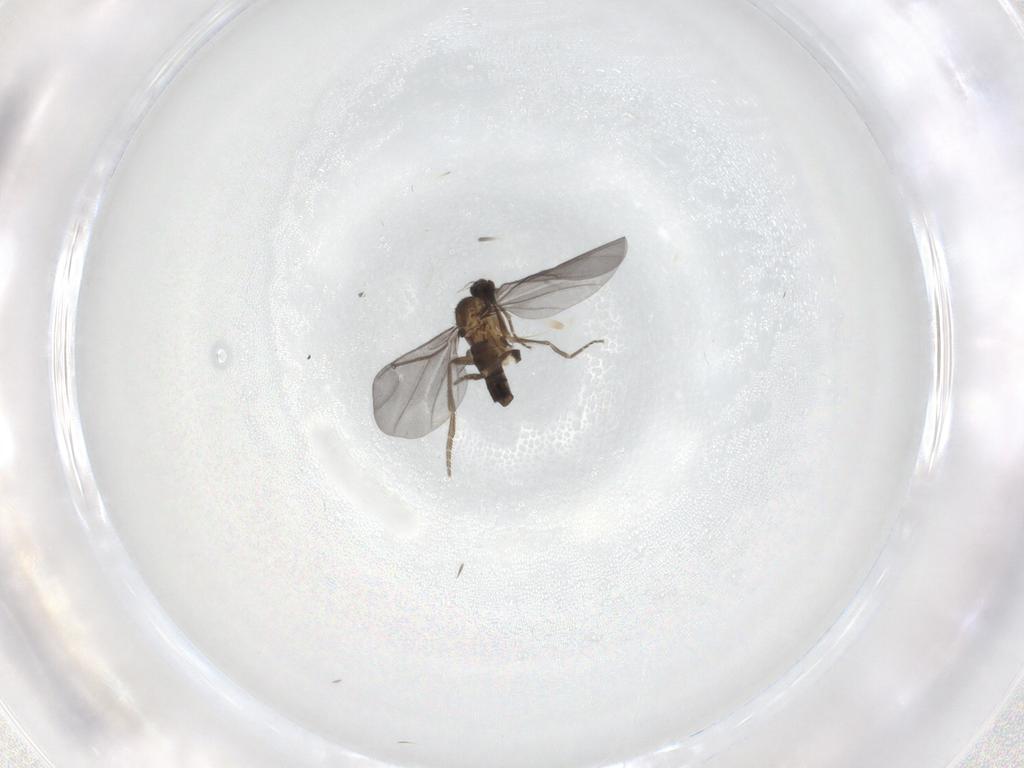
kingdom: Animalia
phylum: Arthropoda
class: Insecta
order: Diptera
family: Phoridae
